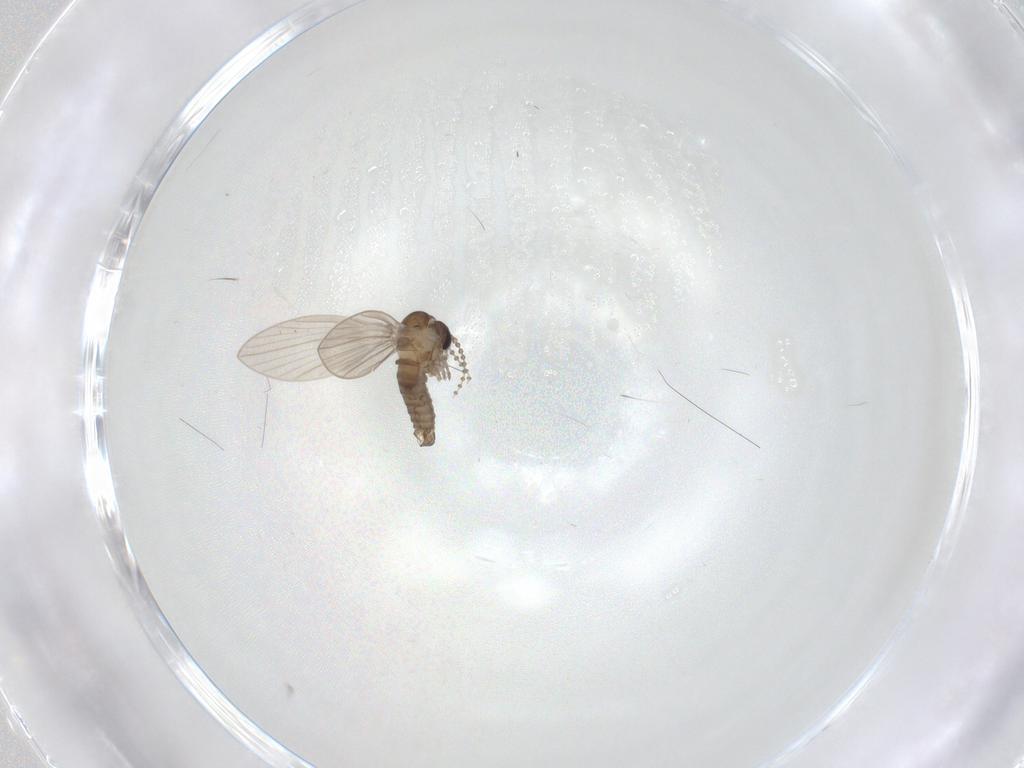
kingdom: Animalia
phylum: Arthropoda
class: Insecta
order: Diptera
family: Psychodidae
